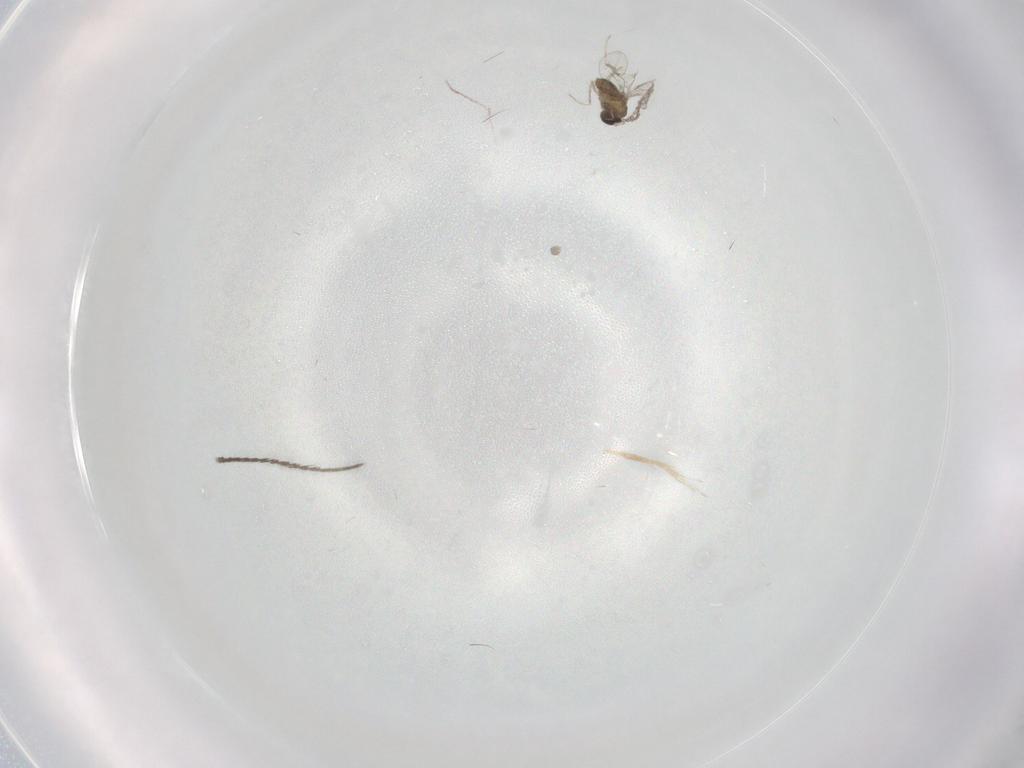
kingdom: Animalia
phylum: Arthropoda
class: Insecta
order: Diptera
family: Cecidomyiidae
